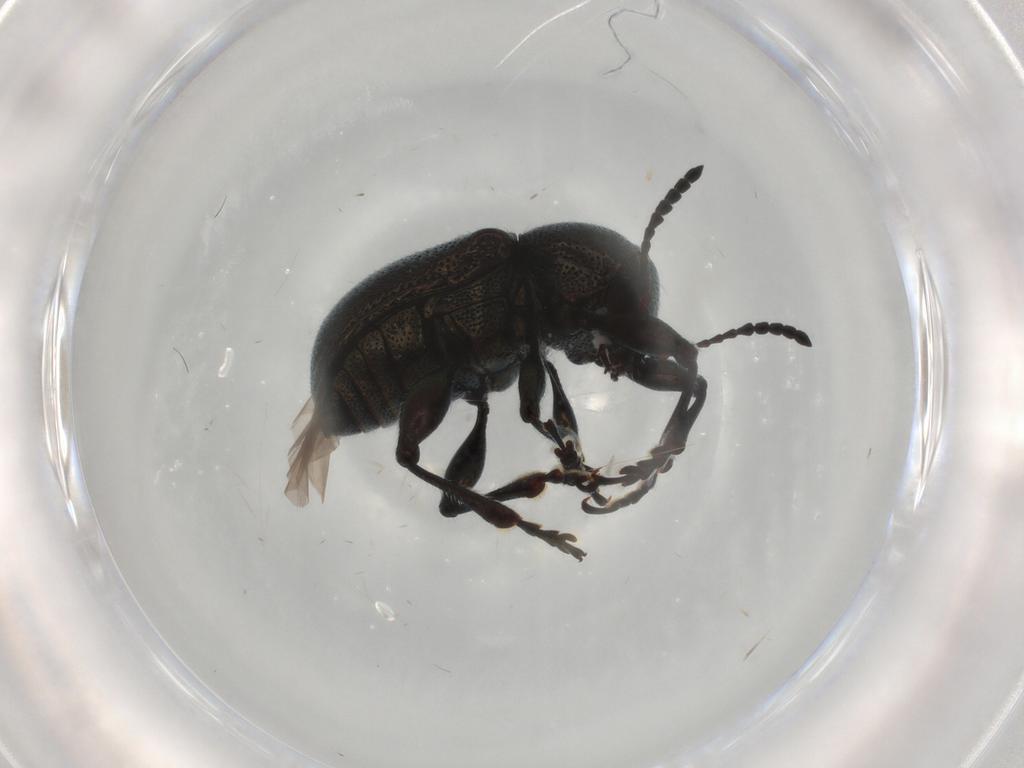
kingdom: Animalia
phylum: Arthropoda
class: Insecta
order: Coleoptera
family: Chrysomelidae
